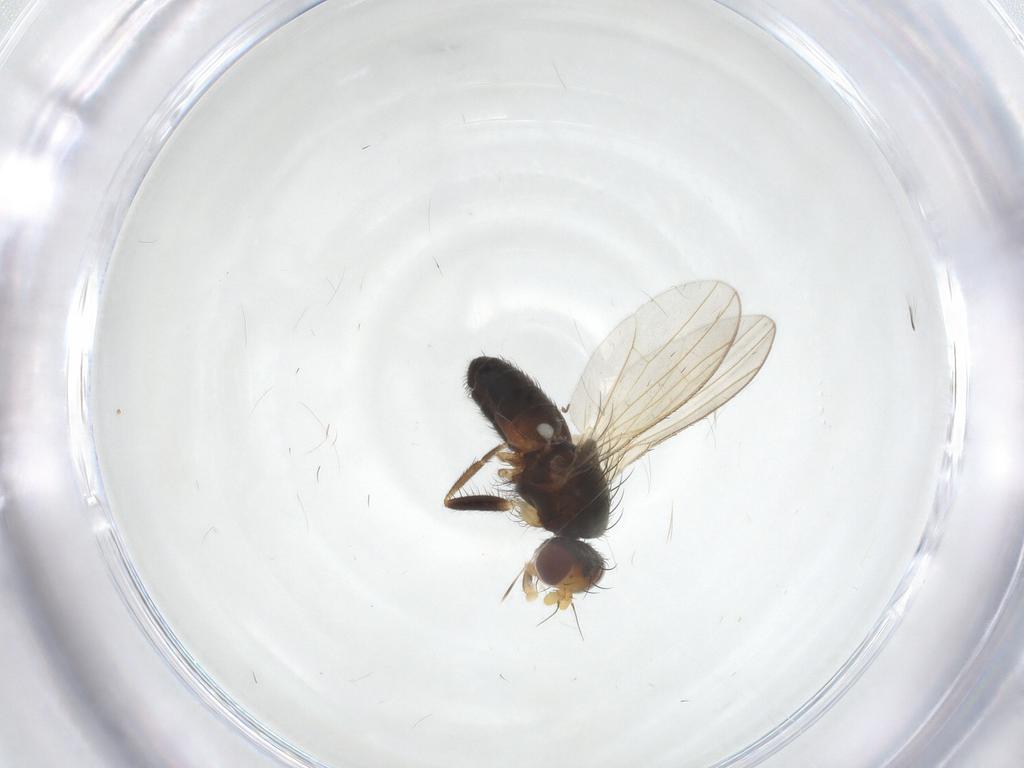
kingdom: Animalia
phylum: Arthropoda
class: Insecta
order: Diptera
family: Heleomyzidae
